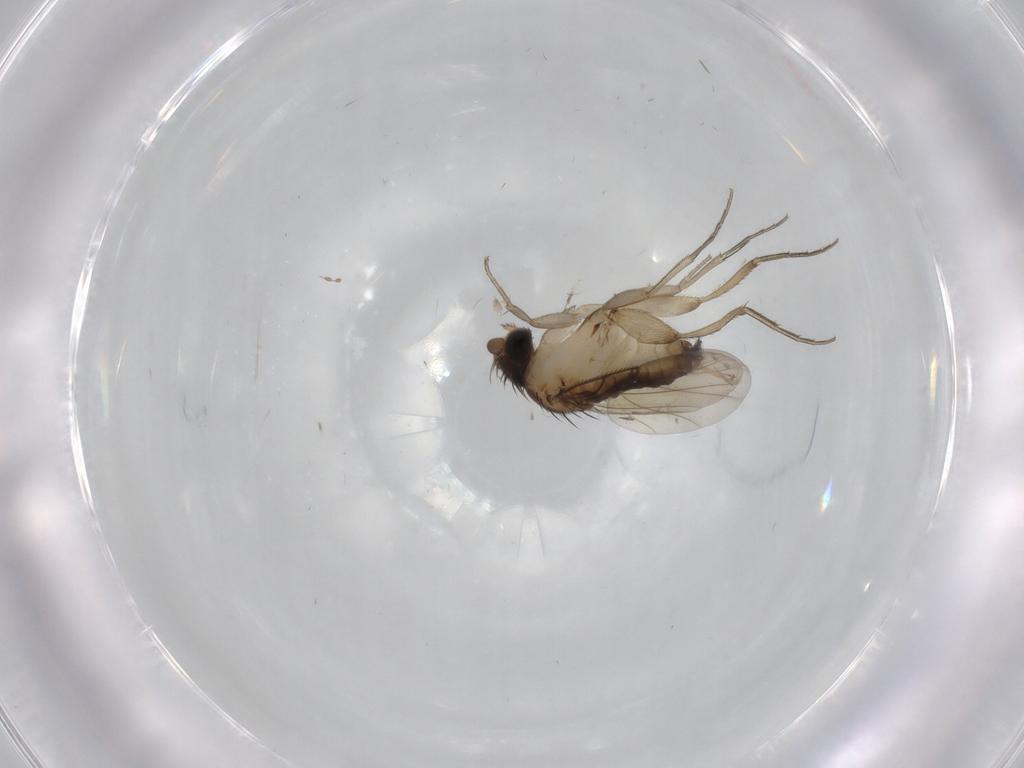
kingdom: Animalia
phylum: Arthropoda
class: Insecta
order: Diptera
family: Phoridae
